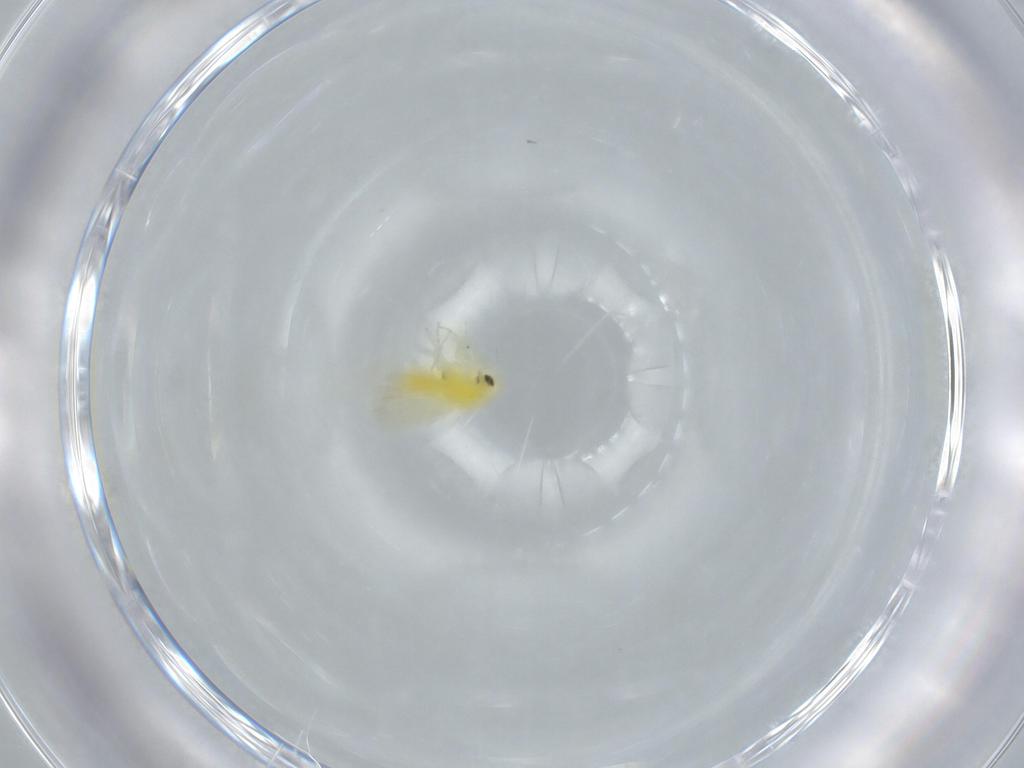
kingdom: Animalia
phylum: Arthropoda
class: Insecta
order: Hemiptera
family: Cicadellidae
